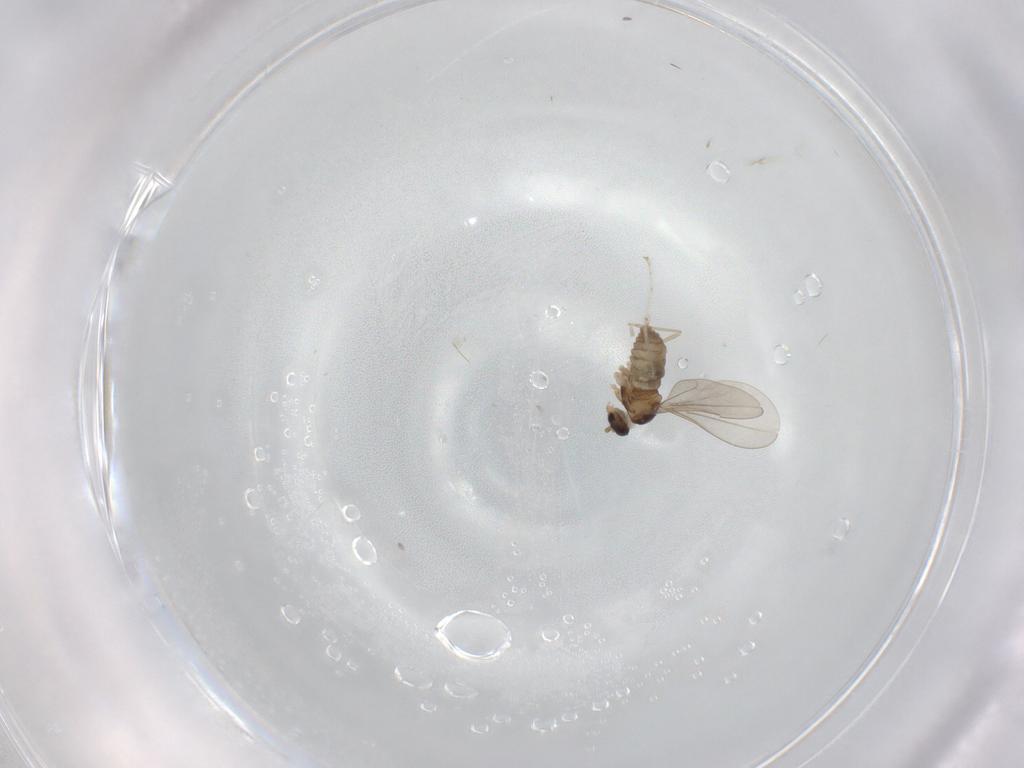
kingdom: Animalia
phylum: Arthropoda
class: Insecta
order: Diptera
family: Cecidomyiidae
